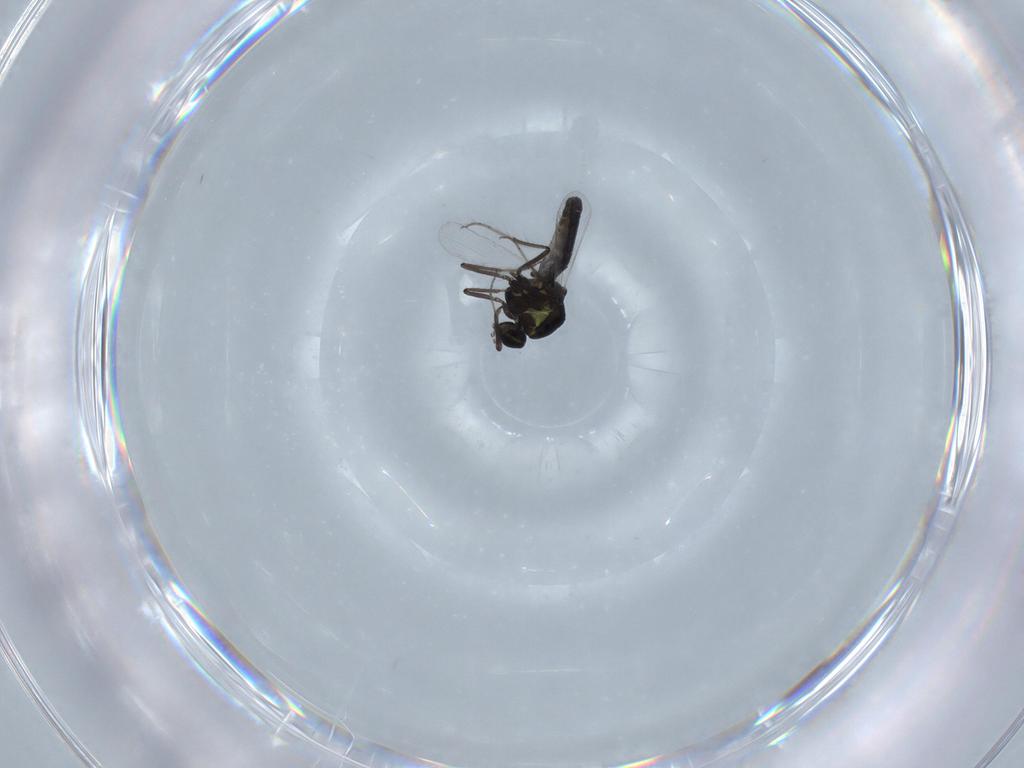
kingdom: Animalia
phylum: Arthropoda
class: Insecta
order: Diptera
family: Ceratopogonidae
